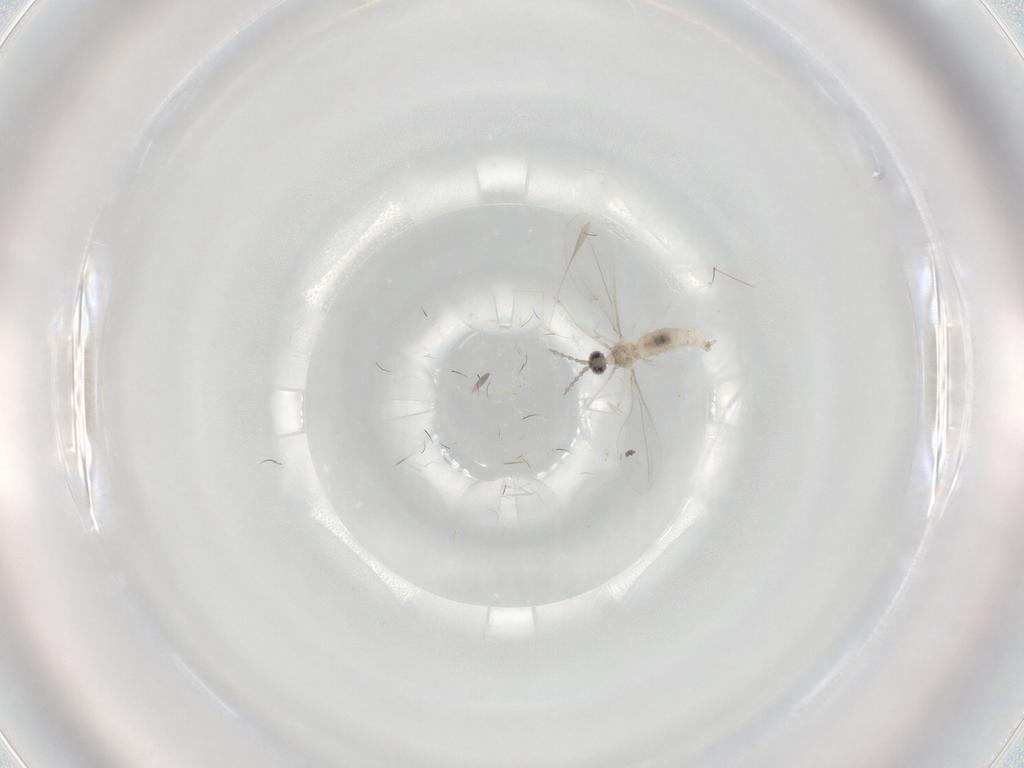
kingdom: Animalia
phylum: Arthropoda
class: Insecta
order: Diptera
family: Cecidomyiidae
